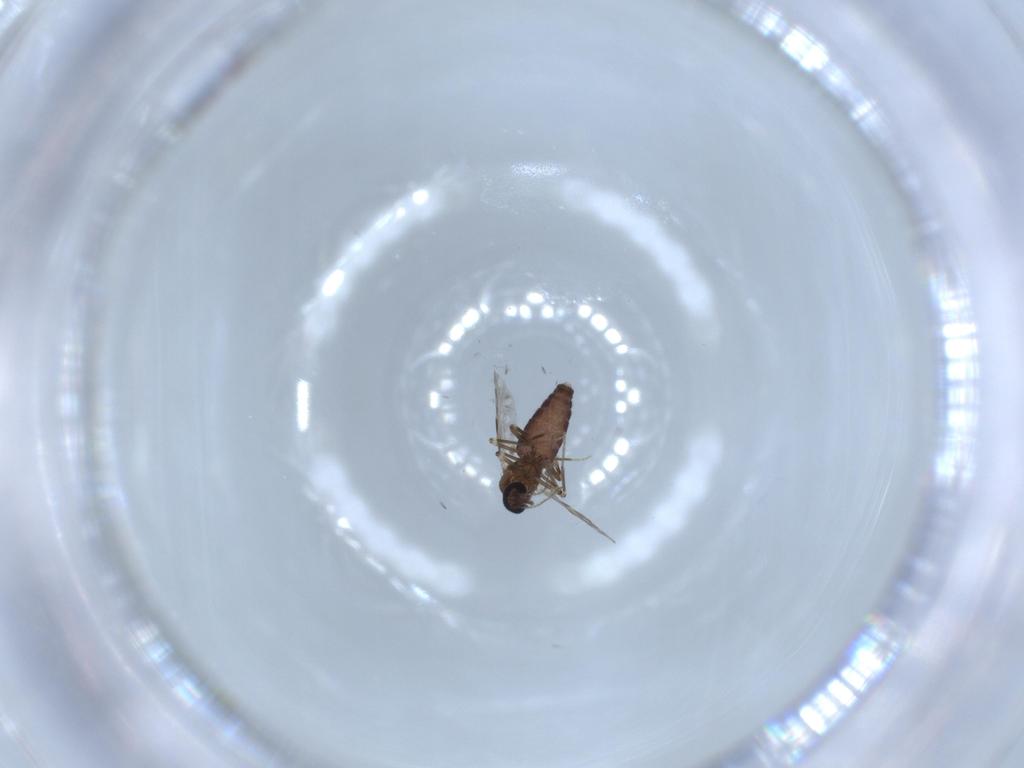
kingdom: Animalia
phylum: Arthropoda
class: Insecta
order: Diptera
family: Ceratopogonidae
